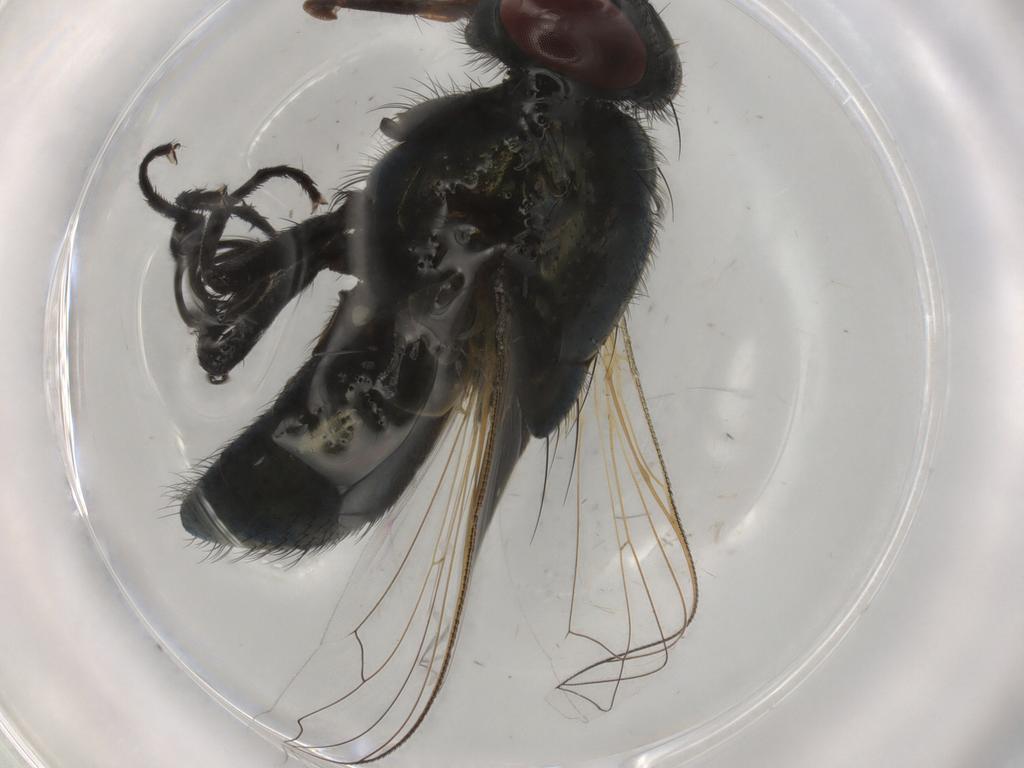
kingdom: Animalia
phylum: Arthropoda
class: Insecta
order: Diptera
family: Muscidae
